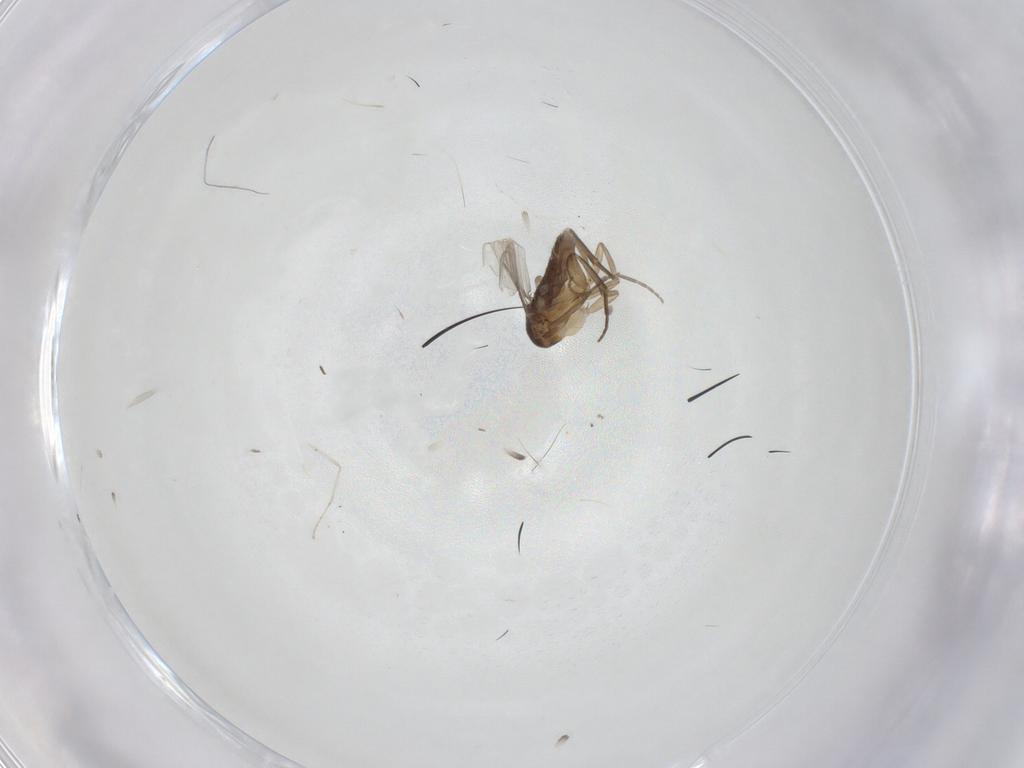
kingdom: Animalia
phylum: Arthropoda
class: Insecta
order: Diptera
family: Cecidomyiidae
